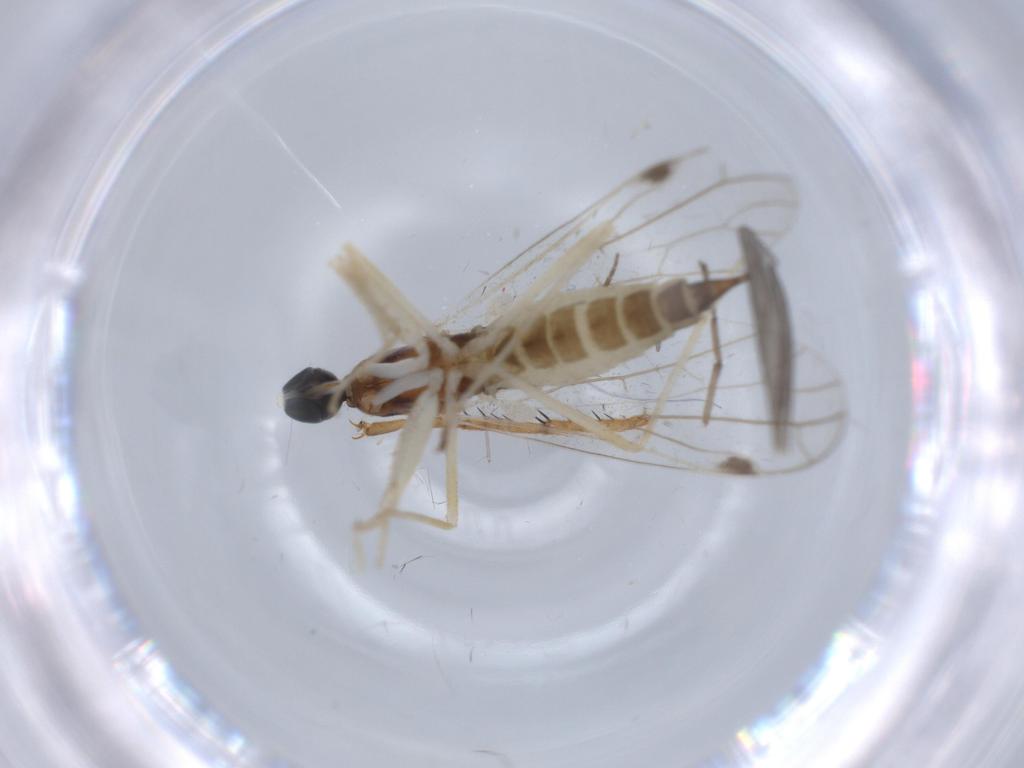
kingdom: Animalia
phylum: Arthropoda
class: Insecta
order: Diptera
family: Empididae
